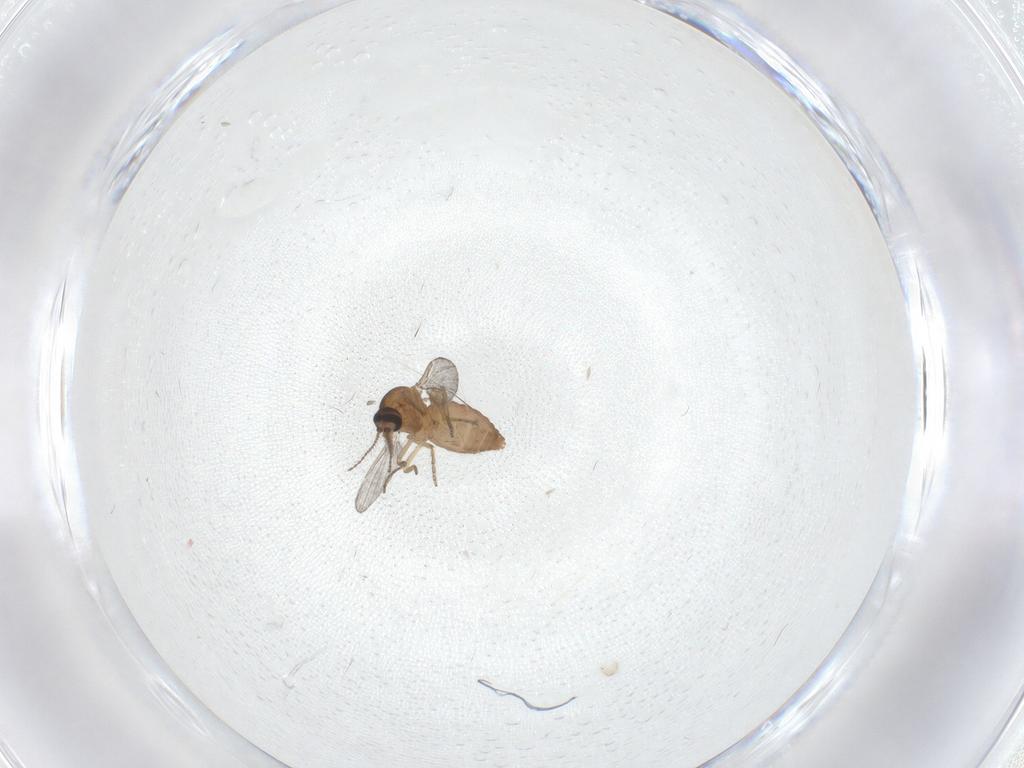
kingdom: Animalia
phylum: Arthropoda
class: Insecta
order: Diptera
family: Ceratopogonidae
